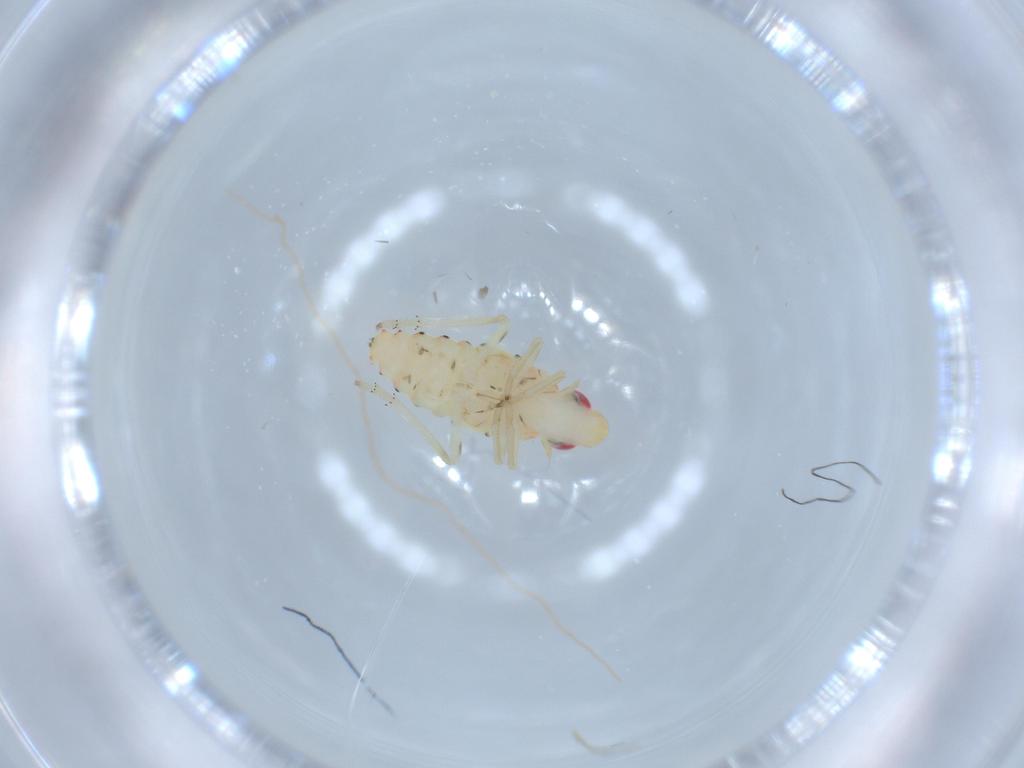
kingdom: Animalia
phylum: Arthropoda
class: Insecta
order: Hemiptera
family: Tropiduchidae
